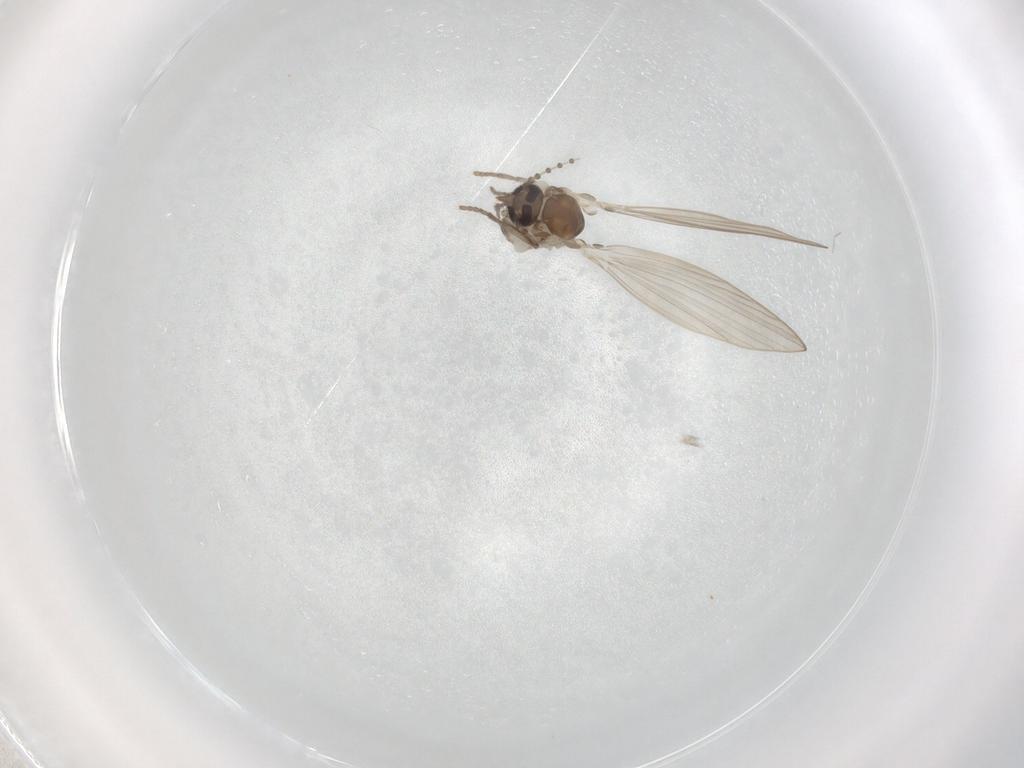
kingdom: Animalia
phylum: Arthropoda
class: Insecta
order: Diptera
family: Psychodidae
